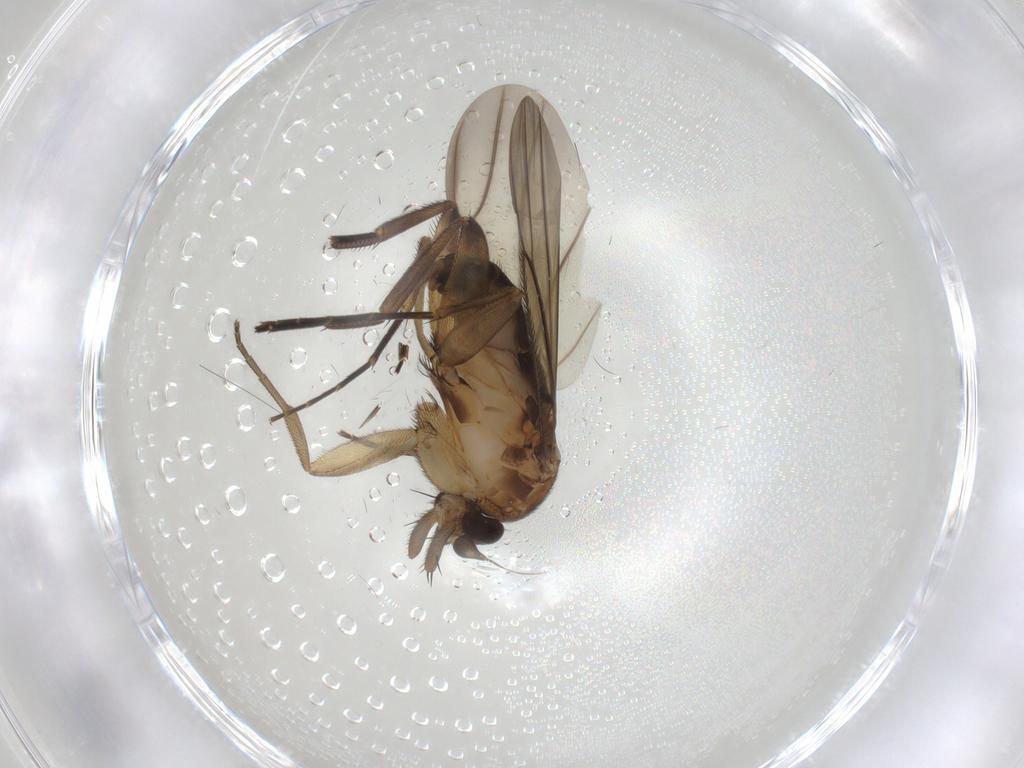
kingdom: Animalia
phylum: Arthropoda
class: Insecta
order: Diptera
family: Phoridae
